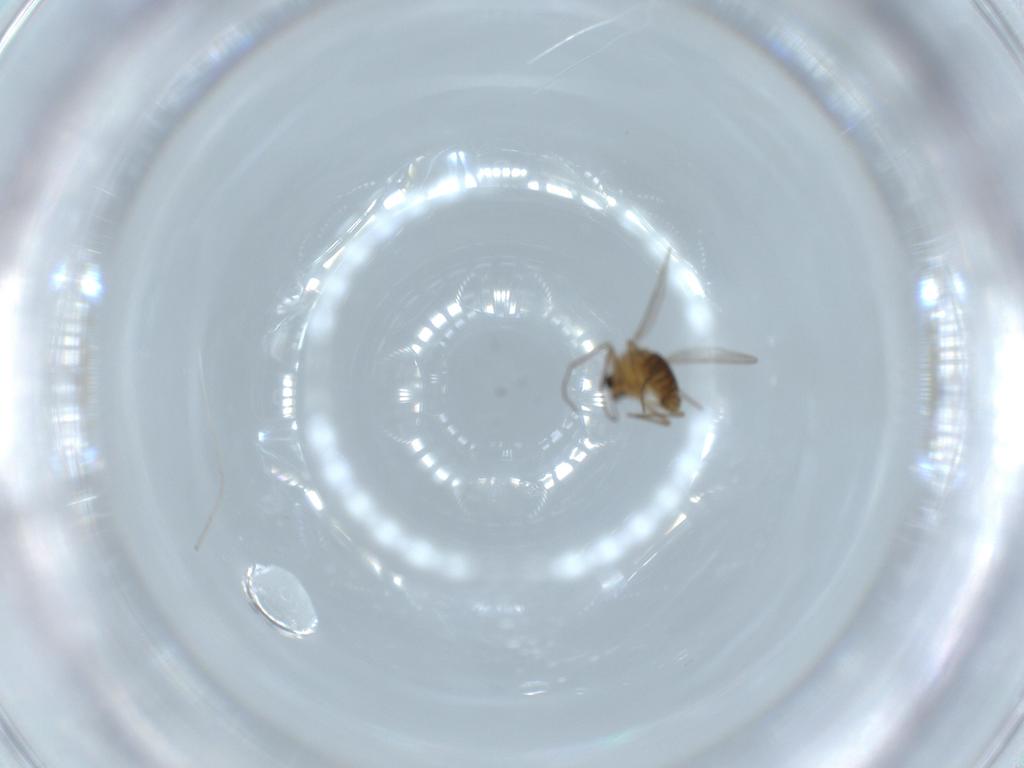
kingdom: Animalia
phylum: Arthropoda
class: Insecta
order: Diptera
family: Chironomidae
